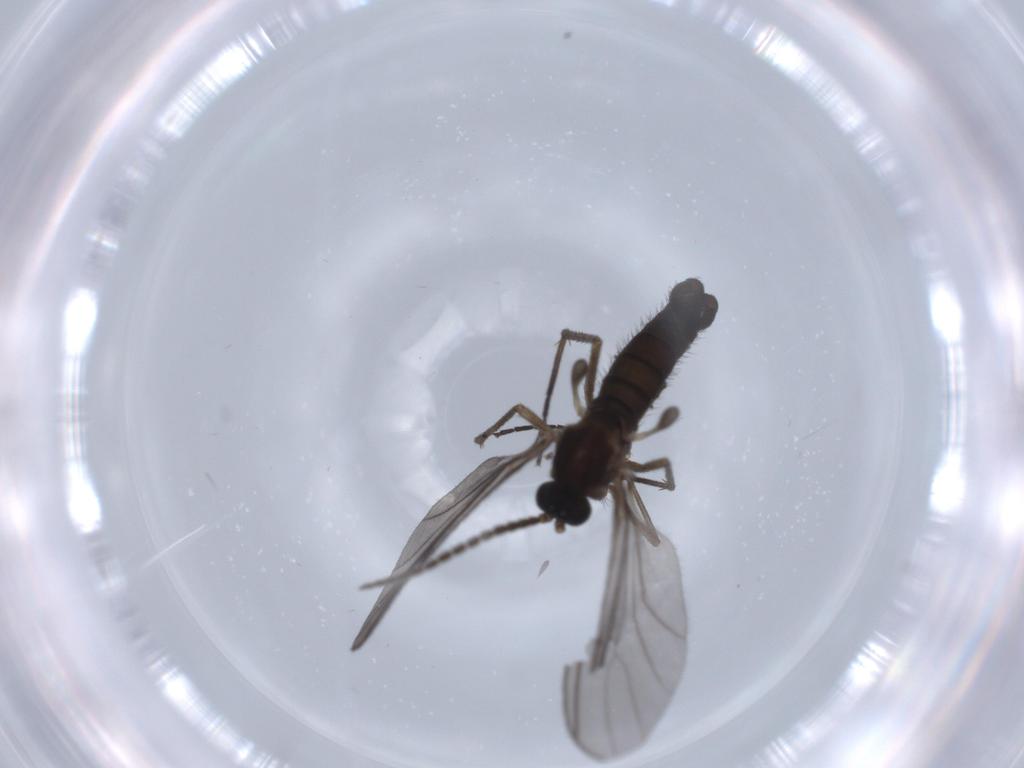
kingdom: Animalia
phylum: Arthropoda
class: Insecta
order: Diptera
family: Sciaridae
